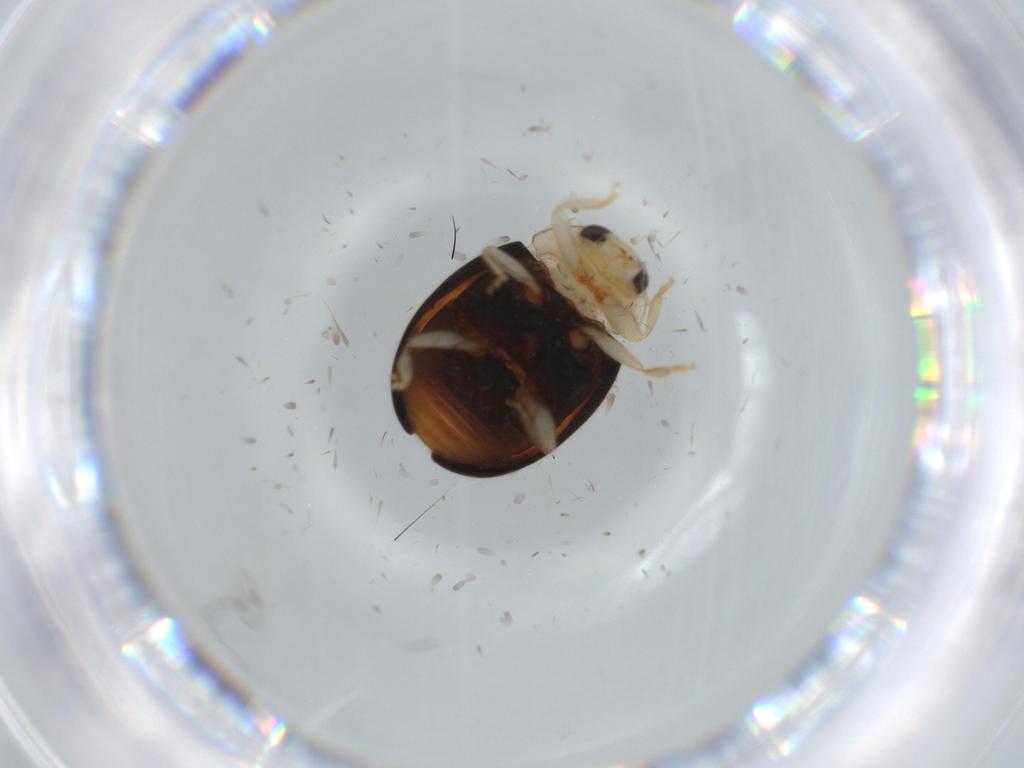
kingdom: Animalia
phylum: Arthropoda
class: Insecta
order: Coleoptera
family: Coccinellidae
